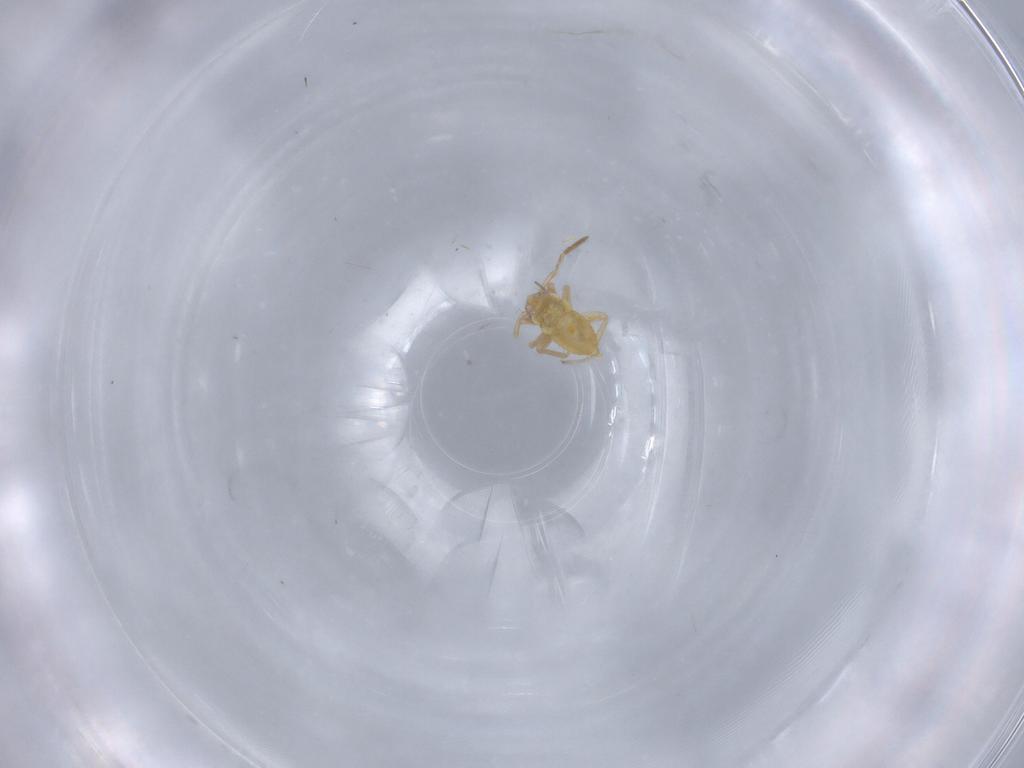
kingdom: Animalia
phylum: Arthropoda
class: Insecta
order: Hemiptera
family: Miridae
